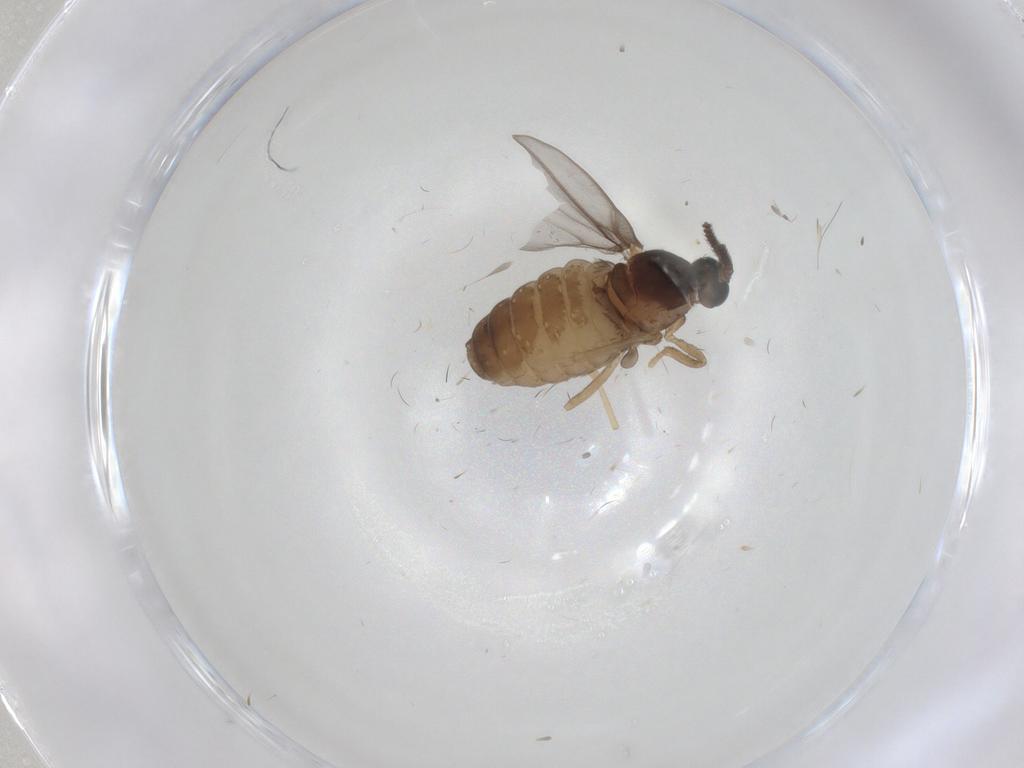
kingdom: Animalia
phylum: Arthropoda
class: Insecta
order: Diptera
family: Cecidomyiidae
